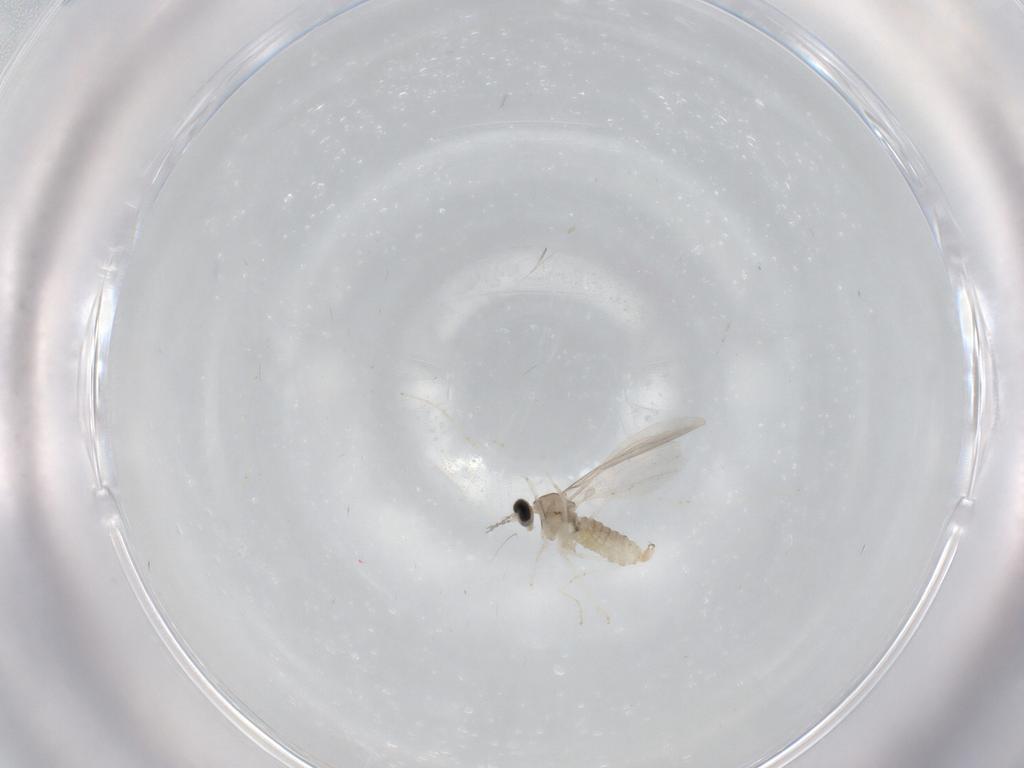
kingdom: Animalia
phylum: Arthropoda
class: Insecta
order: Diptera
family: Cecidomyiidae
